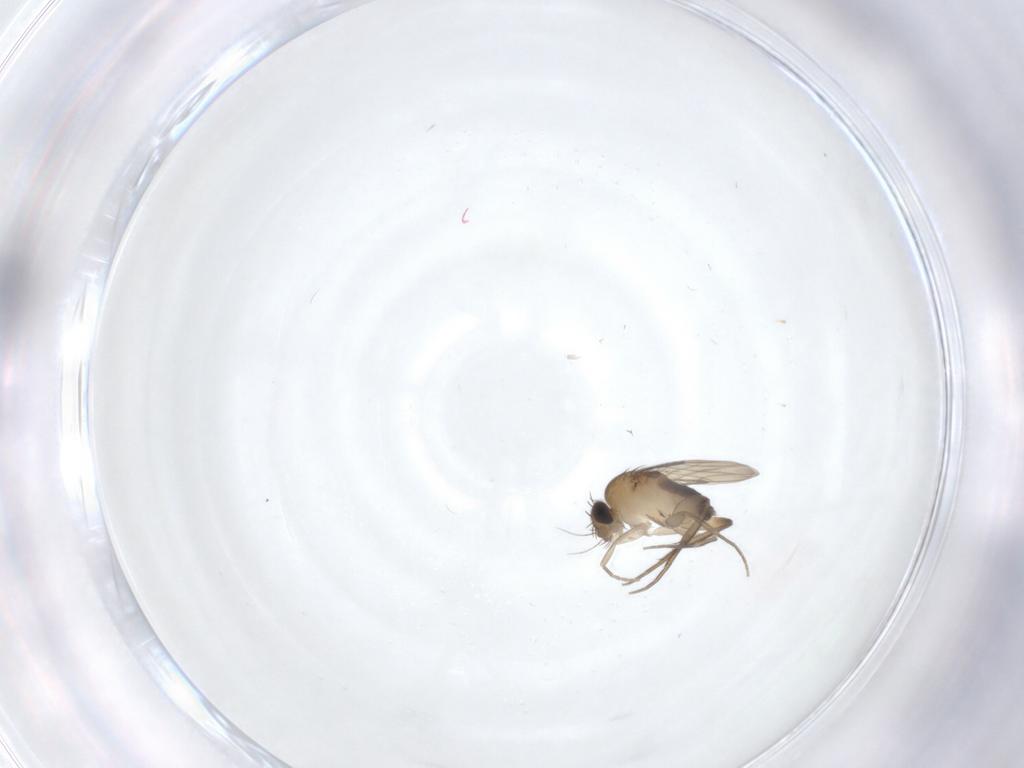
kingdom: Animalia
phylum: Arthropoda
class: Insecta
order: Diptera
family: Phoridae
